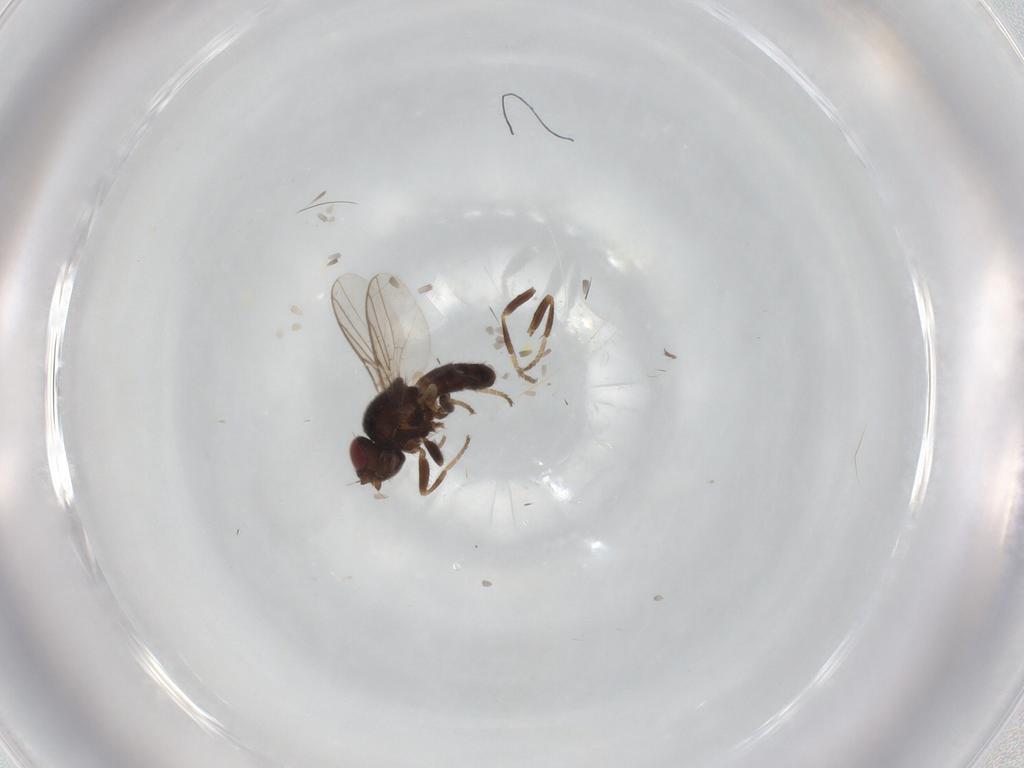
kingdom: Animalia
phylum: Arthropoda
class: Insecta
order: Diptera
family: Chloropidae
